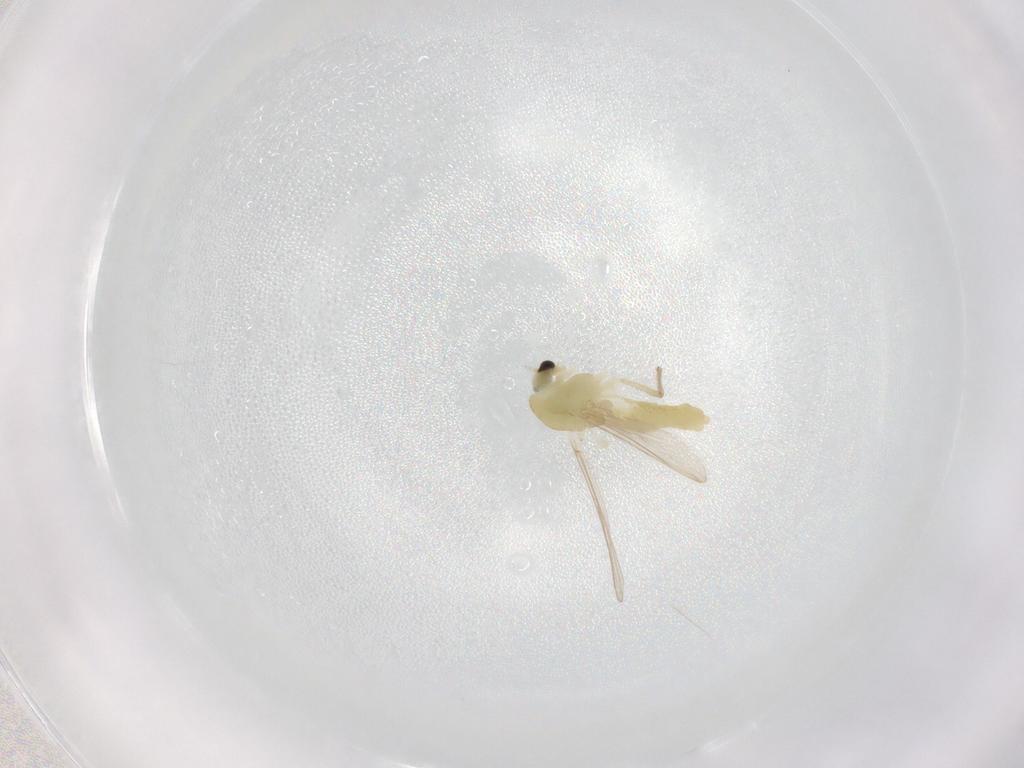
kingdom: Animalia
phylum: Arthropoda
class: Insecta
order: Diptera
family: Chironomidae
